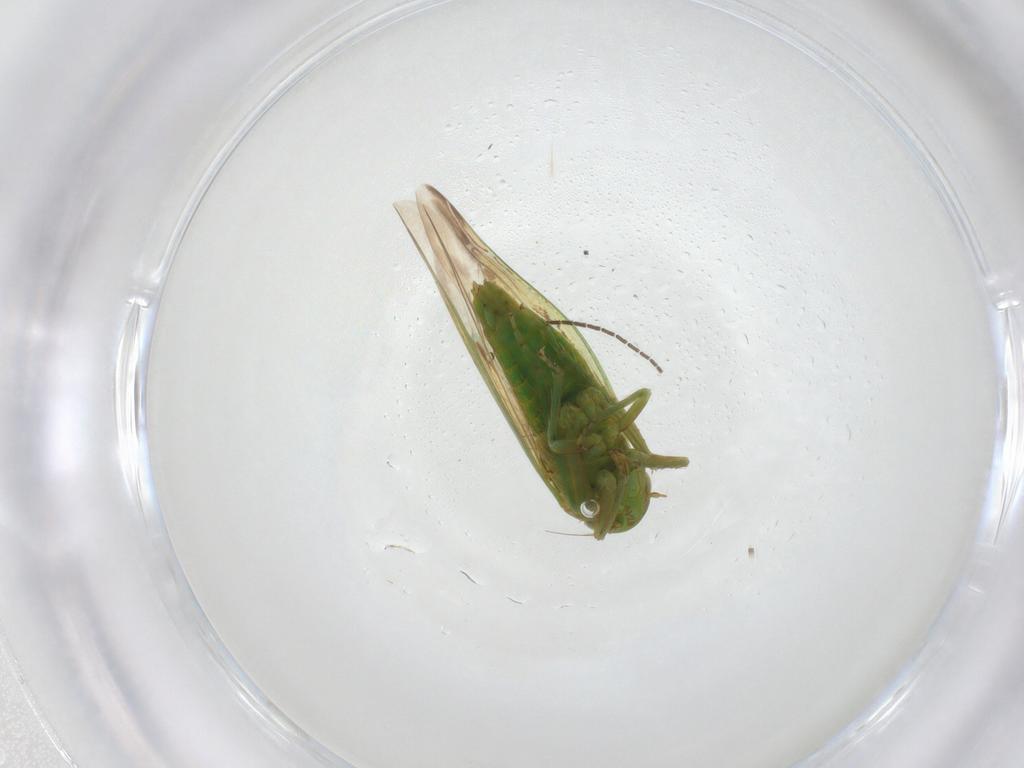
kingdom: Animalia
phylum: Arthropoda
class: Insecta
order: Hemiptera
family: Cicadellidae
